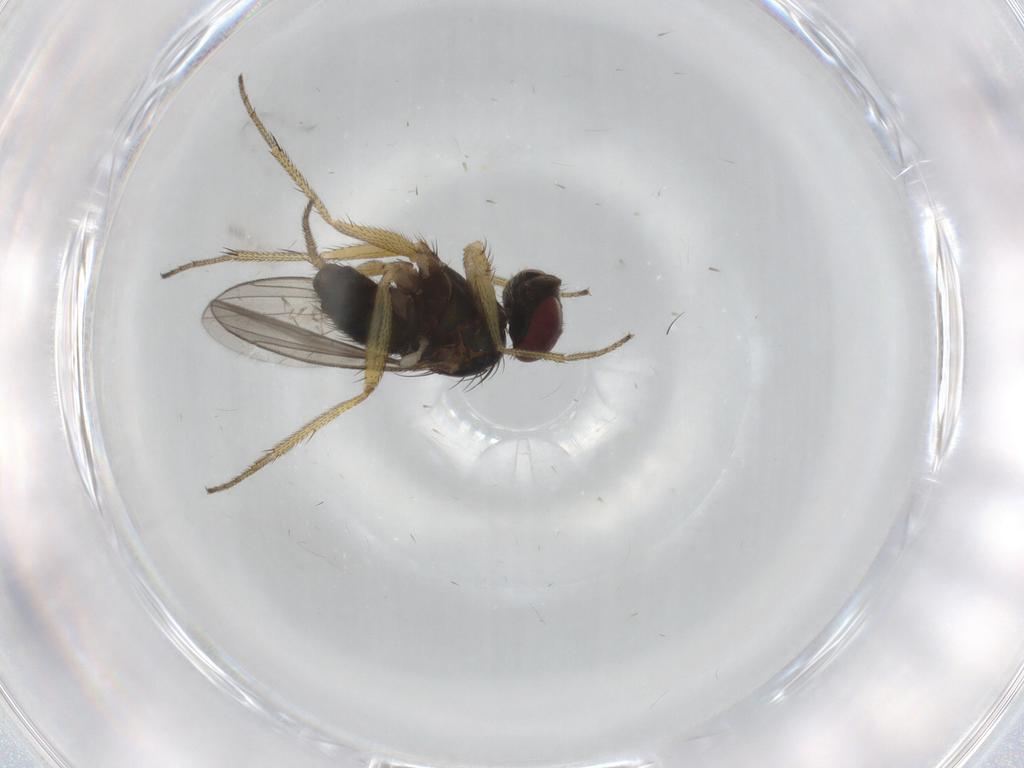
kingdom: Animalia
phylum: Arthropoda
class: Insecta
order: Diptera
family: Dolichopodidae
